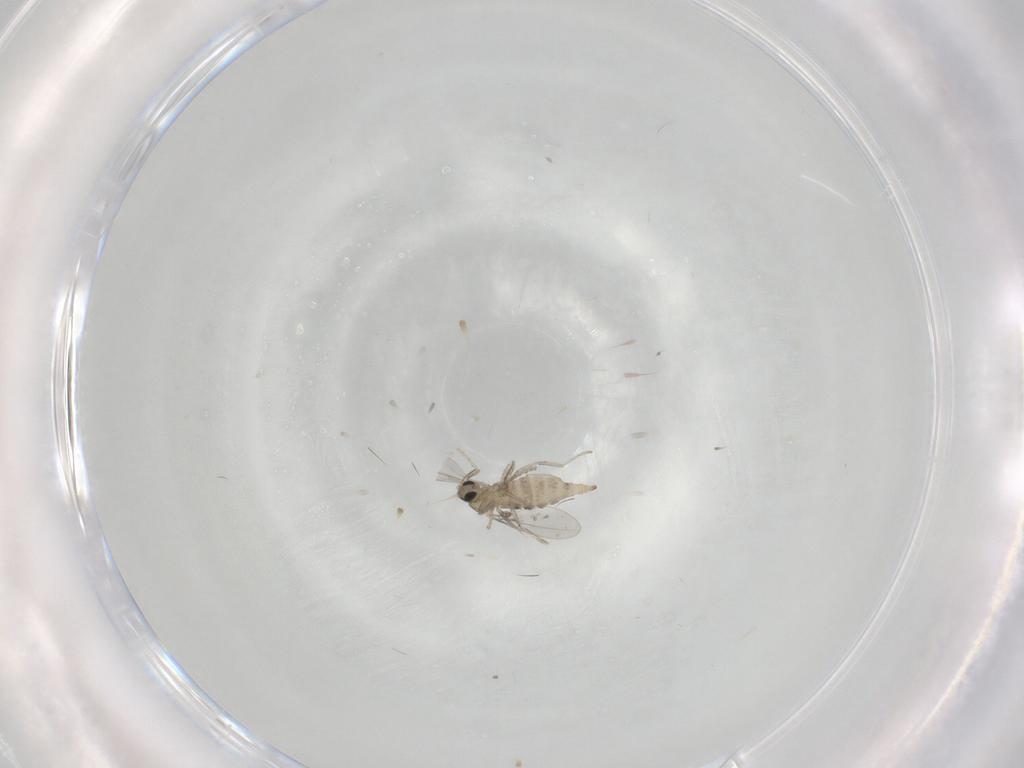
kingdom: Animalia
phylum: Arthropoda
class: Insecta
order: Diptera
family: Cecidomyiidae
